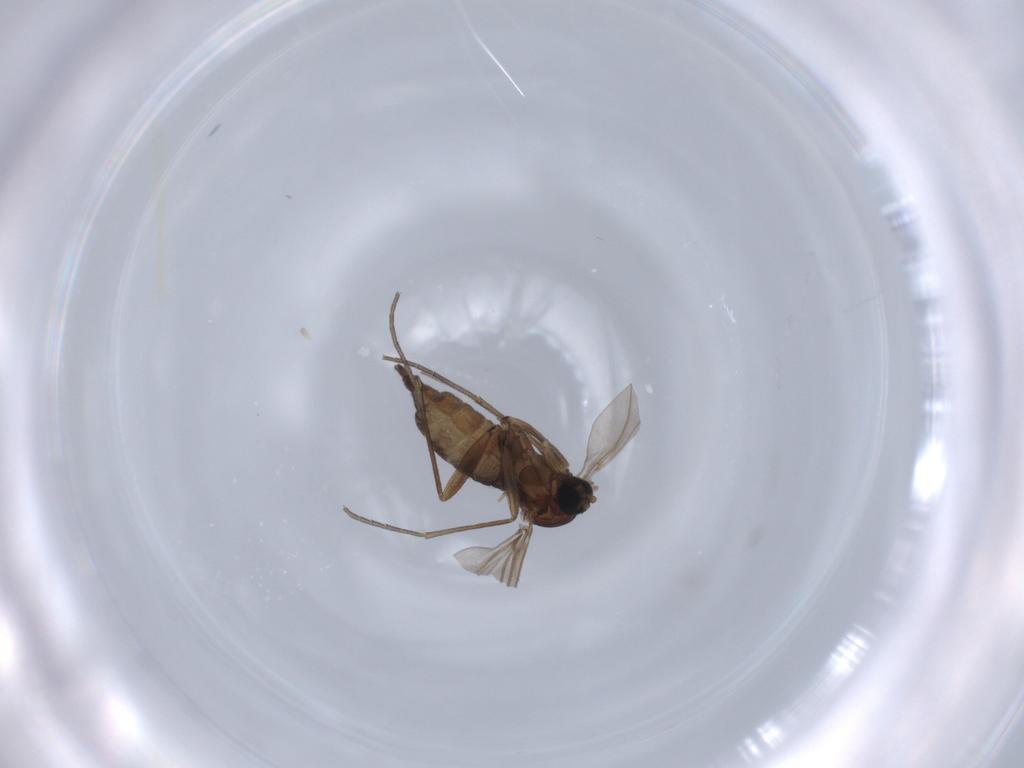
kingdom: Animalia
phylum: Arthropoda
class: Insecta
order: Diptera
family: Sciaridae
